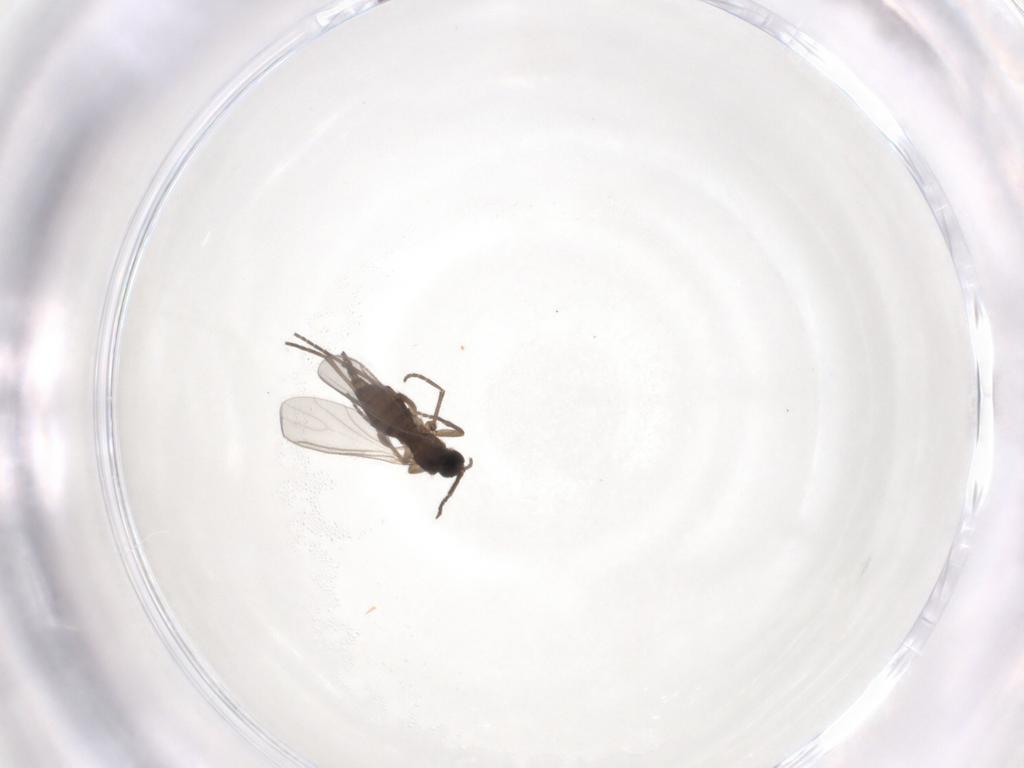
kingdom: Animalia
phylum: Arthropoda
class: Insecta
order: Diptera
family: Sciaridae
